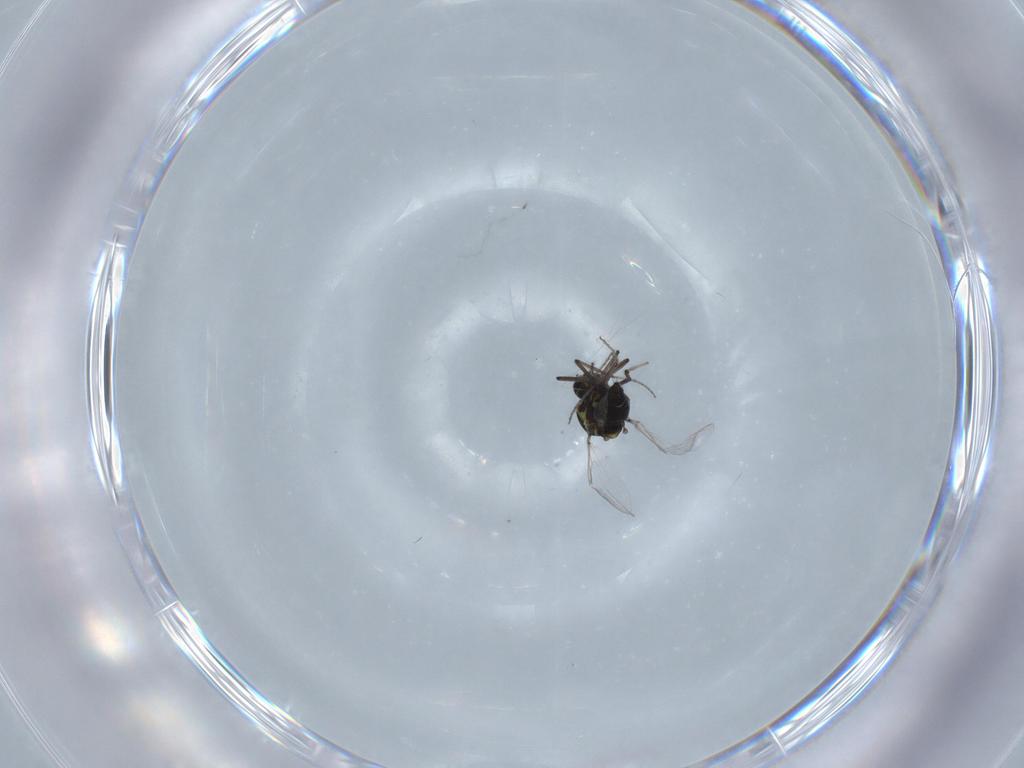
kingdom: Animalia
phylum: Arthropoda
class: Insecta
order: Diptera
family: Ceratopogonidae
